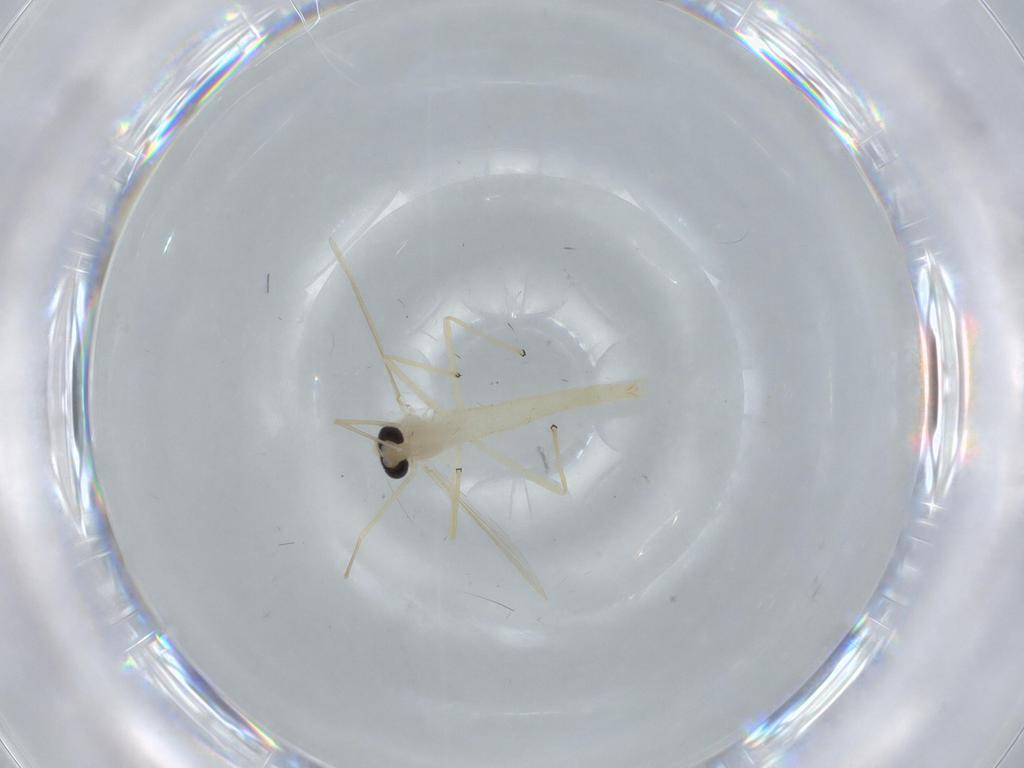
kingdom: Animalia
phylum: Arthropoda
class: Insecta
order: Diptera
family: Chironomidae
